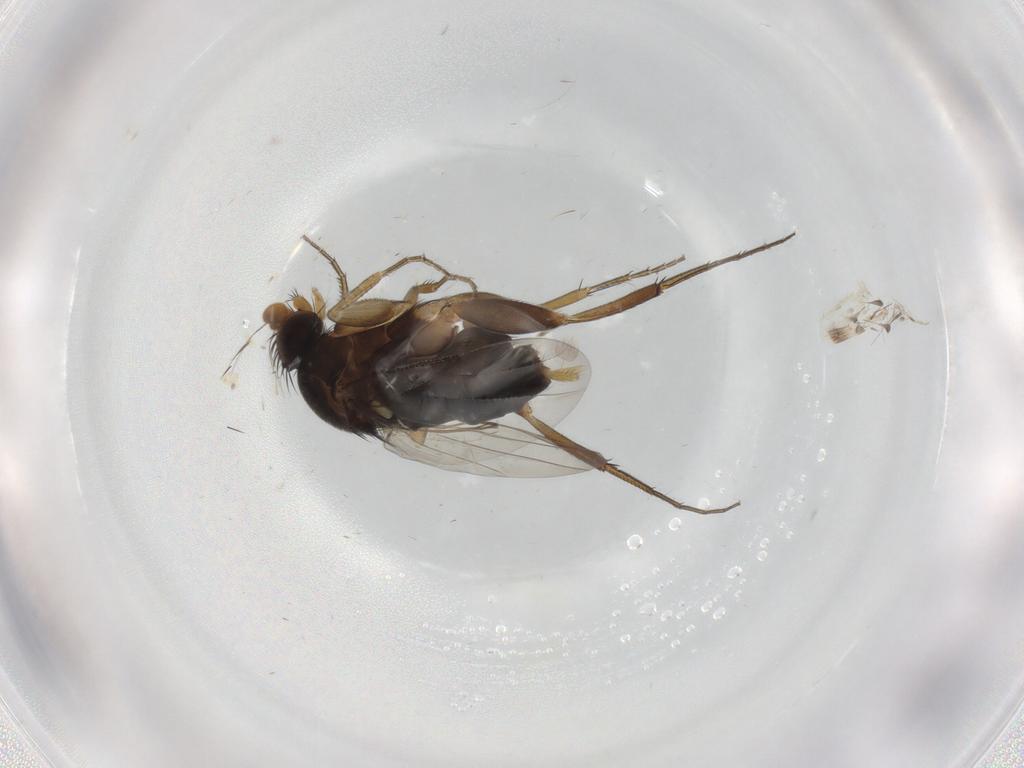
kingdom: Animalia
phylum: Arthropoda
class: Insecta
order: Diptera
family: Phoridae
